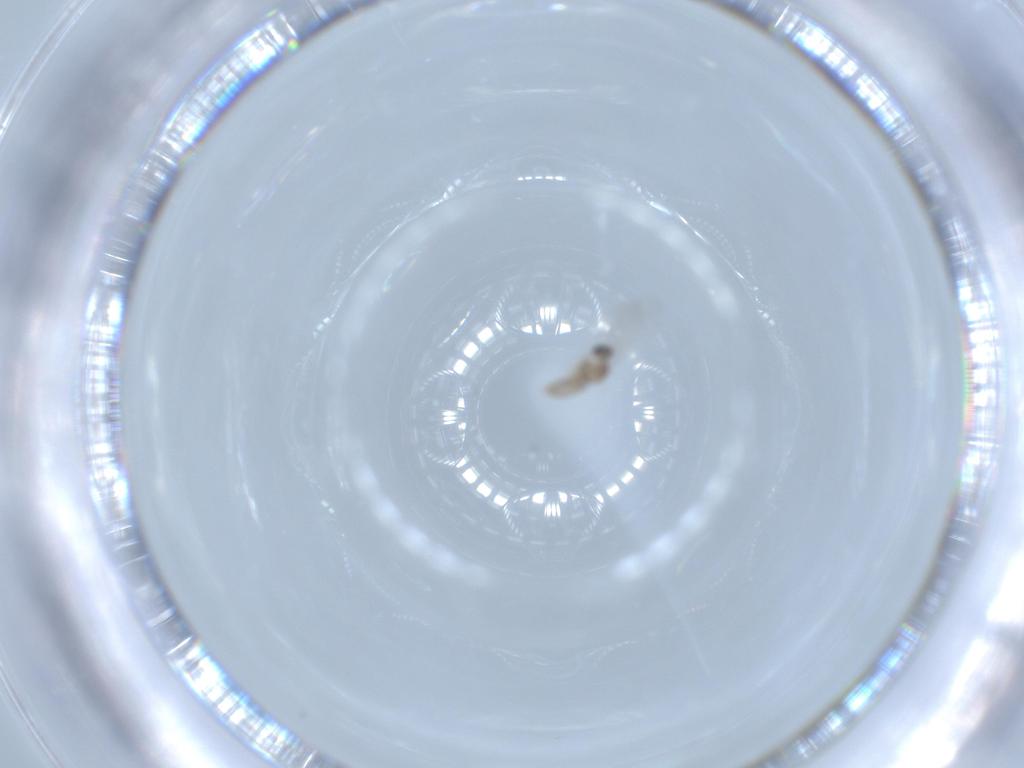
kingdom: Animalia
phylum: Arthropoda
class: Insecta
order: Diptera
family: Cecidomyiidae
